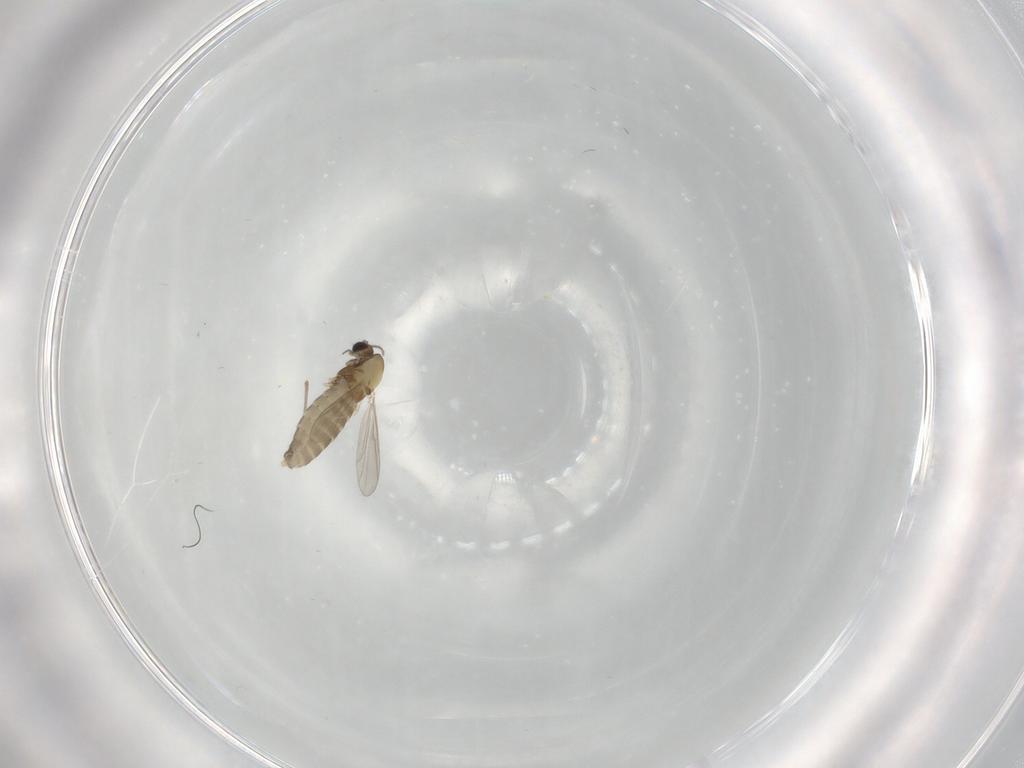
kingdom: Animalia
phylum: Arthropoda
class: Insecta
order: Diptera
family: Chironomidae
